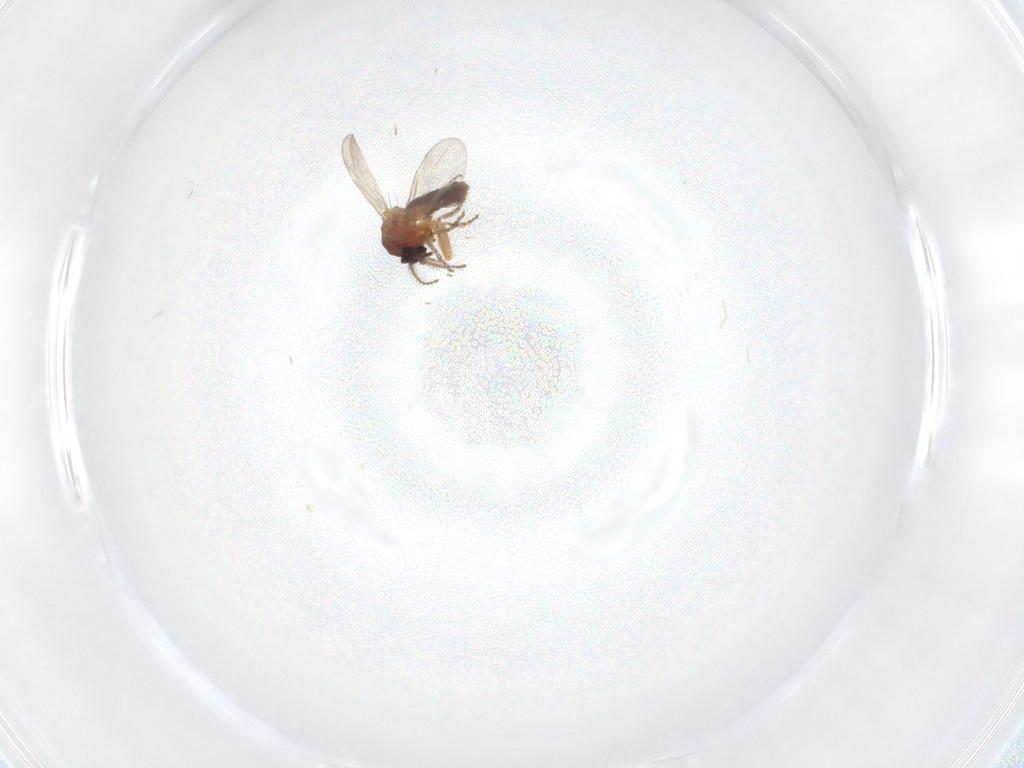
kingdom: Animalia
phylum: Arthropoda
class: Insecta
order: Diptera
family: Ceratopogonidae
